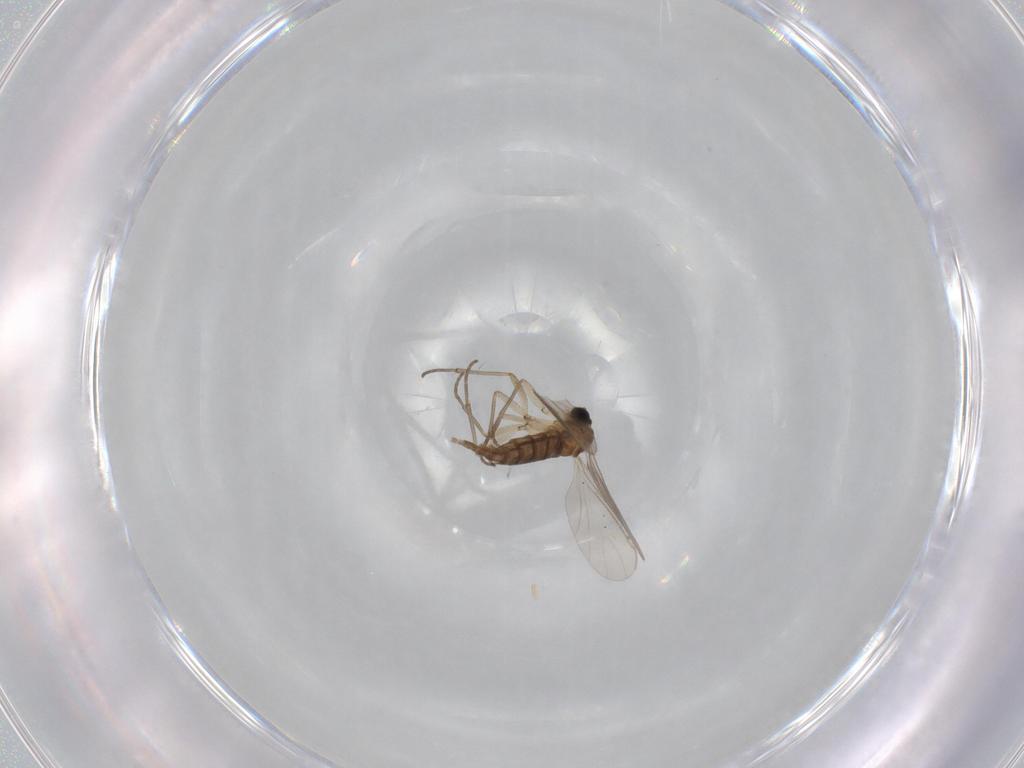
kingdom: Animalia
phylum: Arthropoda
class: Insecta
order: Diptera
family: Sciaridae
